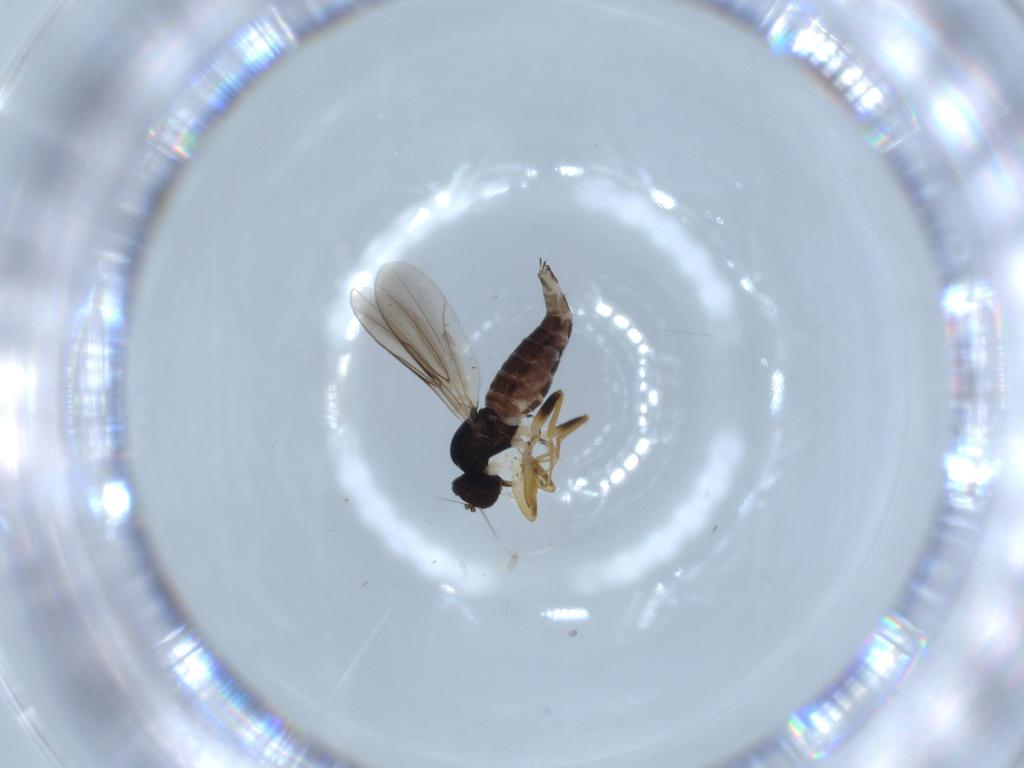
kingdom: Animalia
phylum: Arthropoda
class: Insecta
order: Diptera
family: Hybotidae
